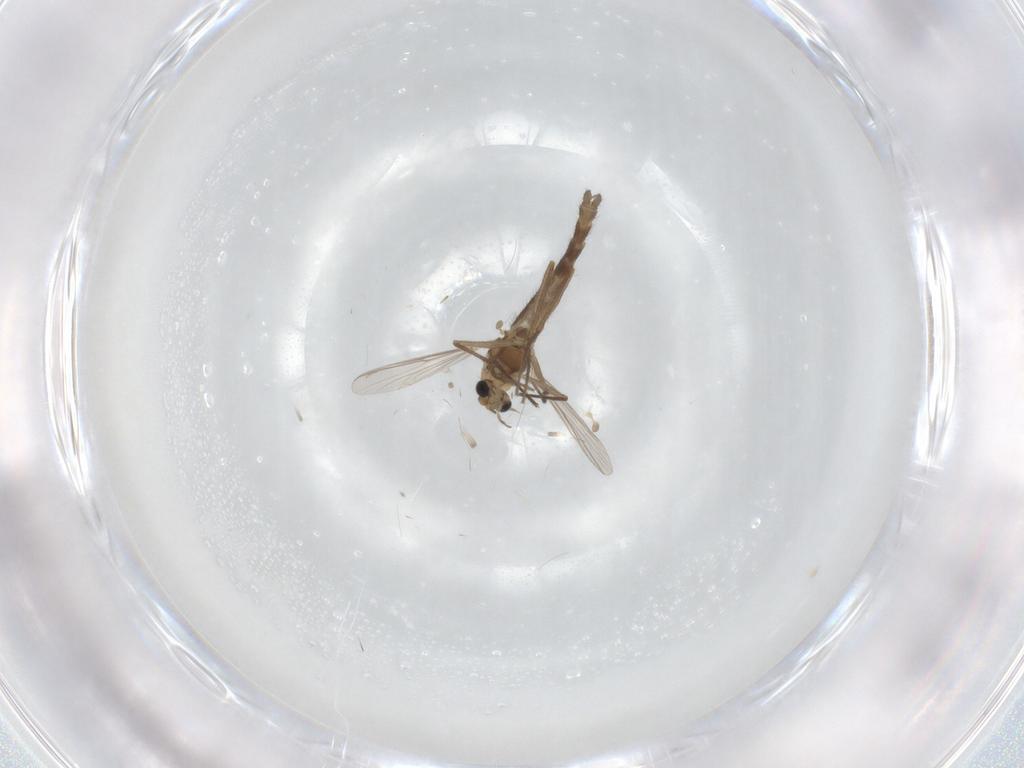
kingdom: Animalia
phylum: Arthropoda
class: Insecta
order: Diptera
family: Chironomidae
